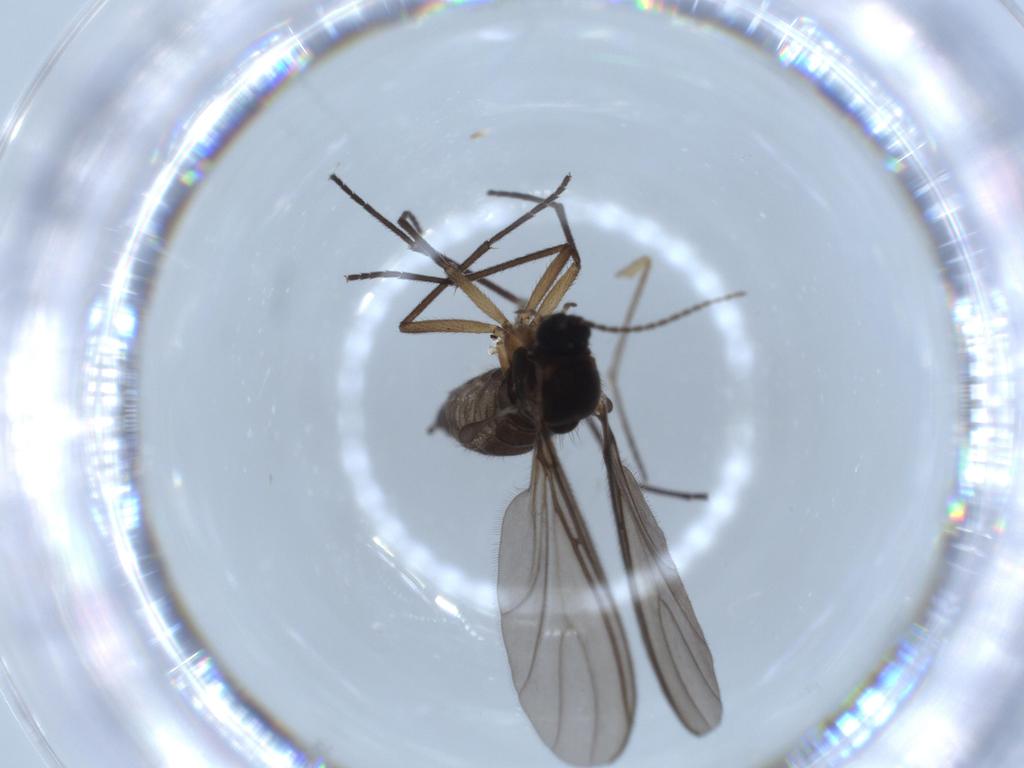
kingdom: Animalia
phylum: Arthropoda
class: Insecta
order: Diptera
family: Sciaridae
